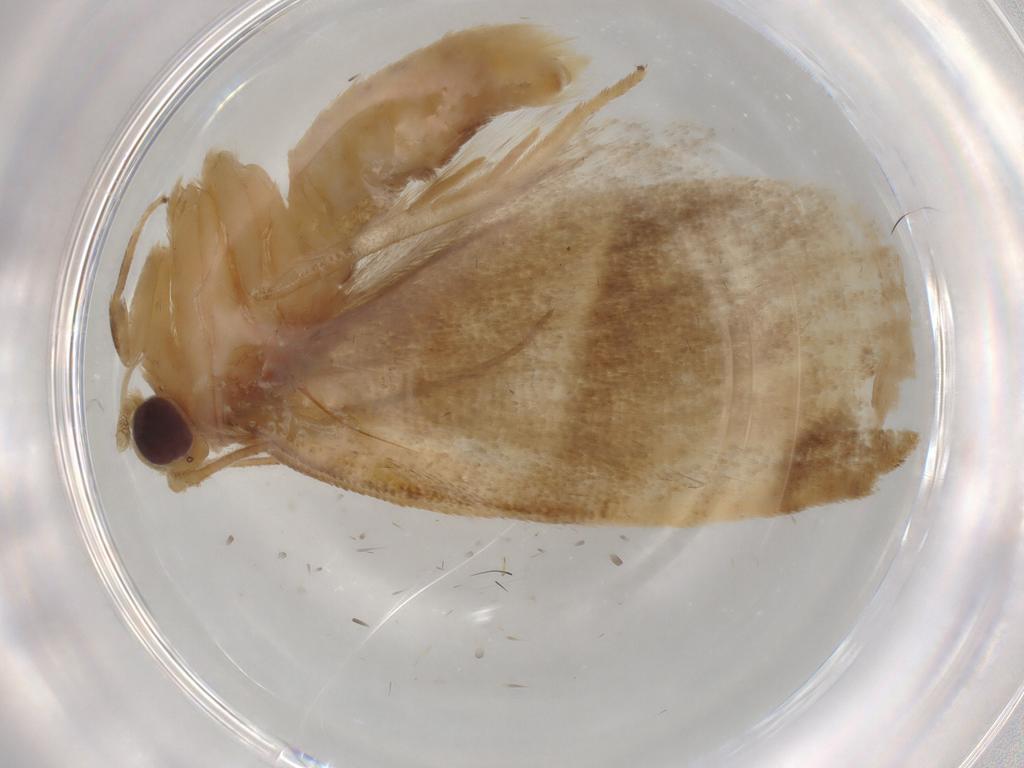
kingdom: Animalia
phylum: Arthropoda
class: Insecta
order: Lepidoptera
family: Tortricidae
